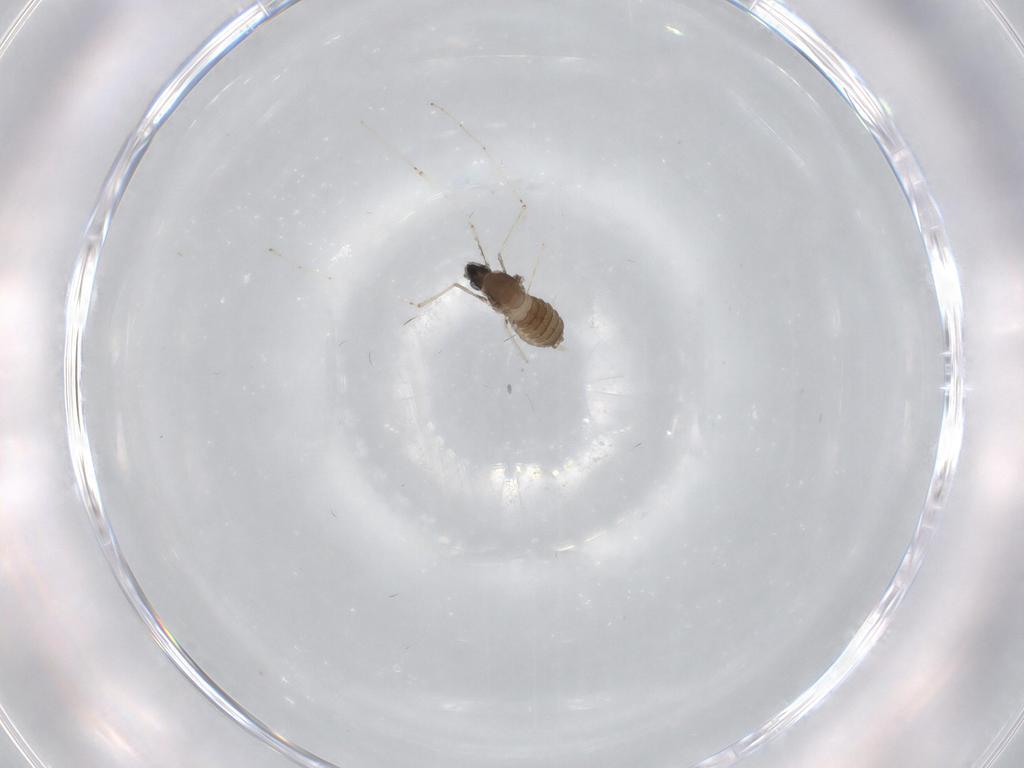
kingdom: Animalia
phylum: Arthropoda
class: Insecta
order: Diptera
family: Cecidomyiidae
